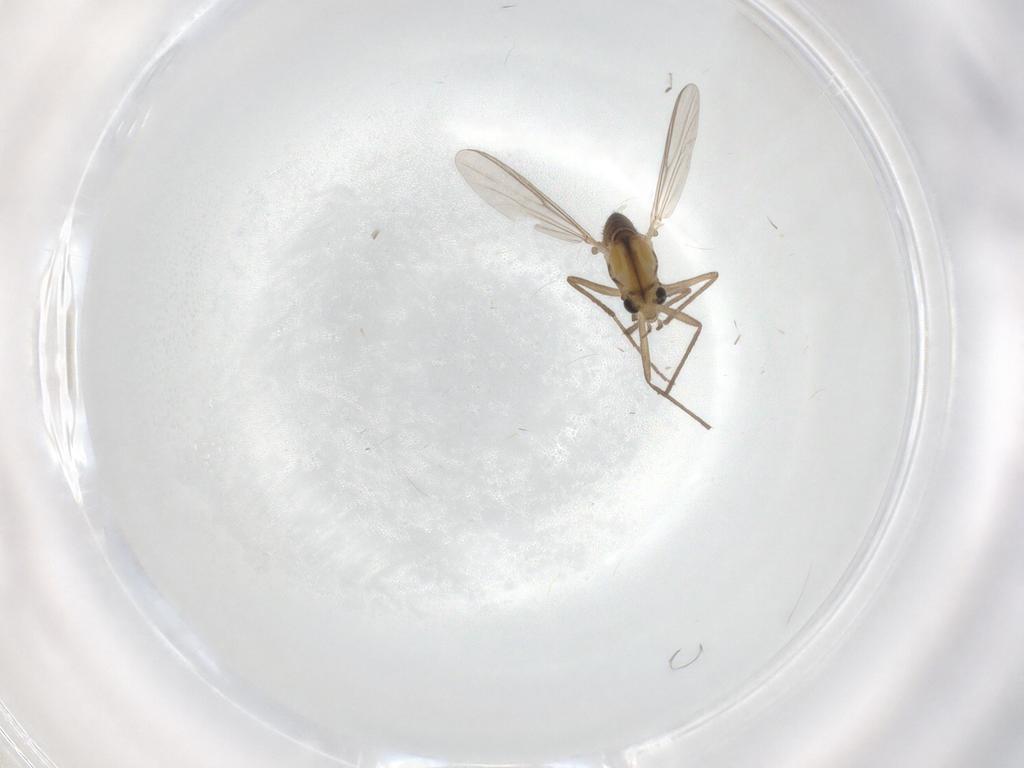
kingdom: Animalia
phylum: Arthropoda
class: Insecta
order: Diptera
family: Chironomidae
